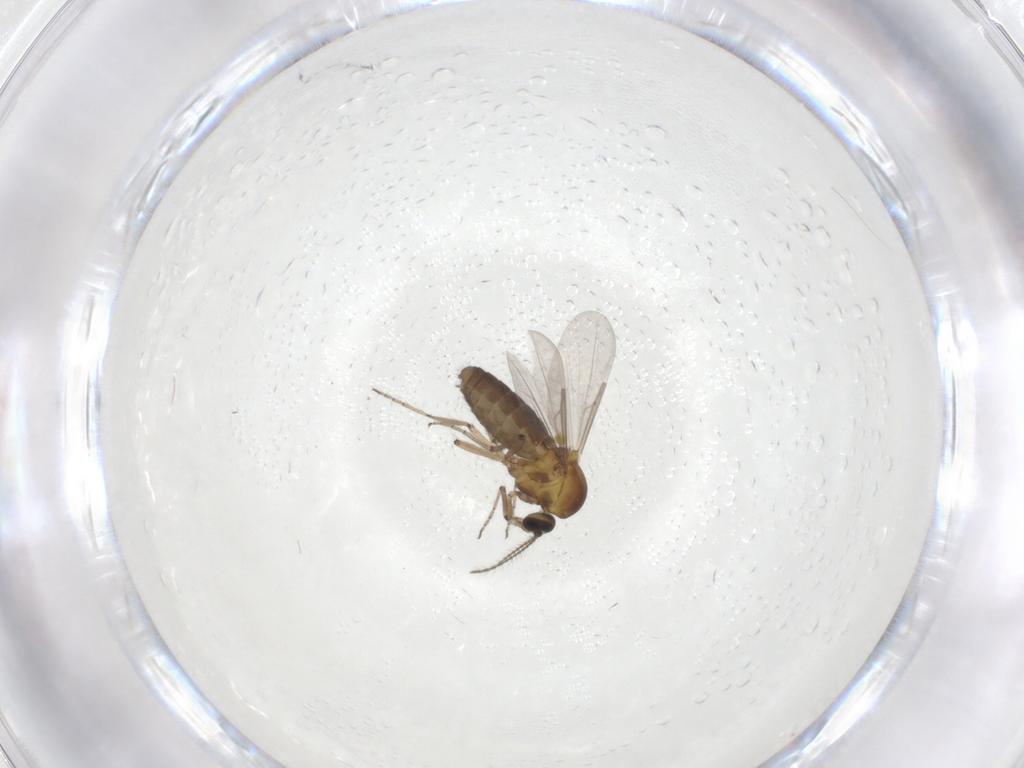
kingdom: Animalia
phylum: Arthropoda
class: Insecta
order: Diptera
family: Ceratopogonidae
